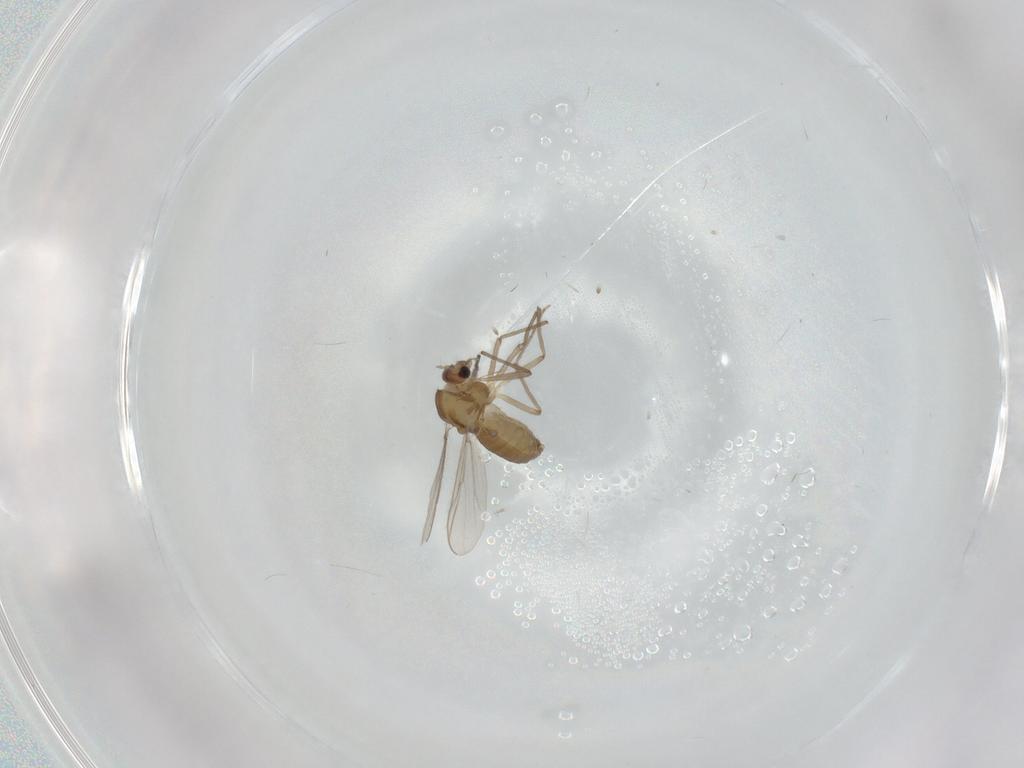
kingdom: Animalia
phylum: Arthropoda
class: Insecta
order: Diptera
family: Chironomidae
